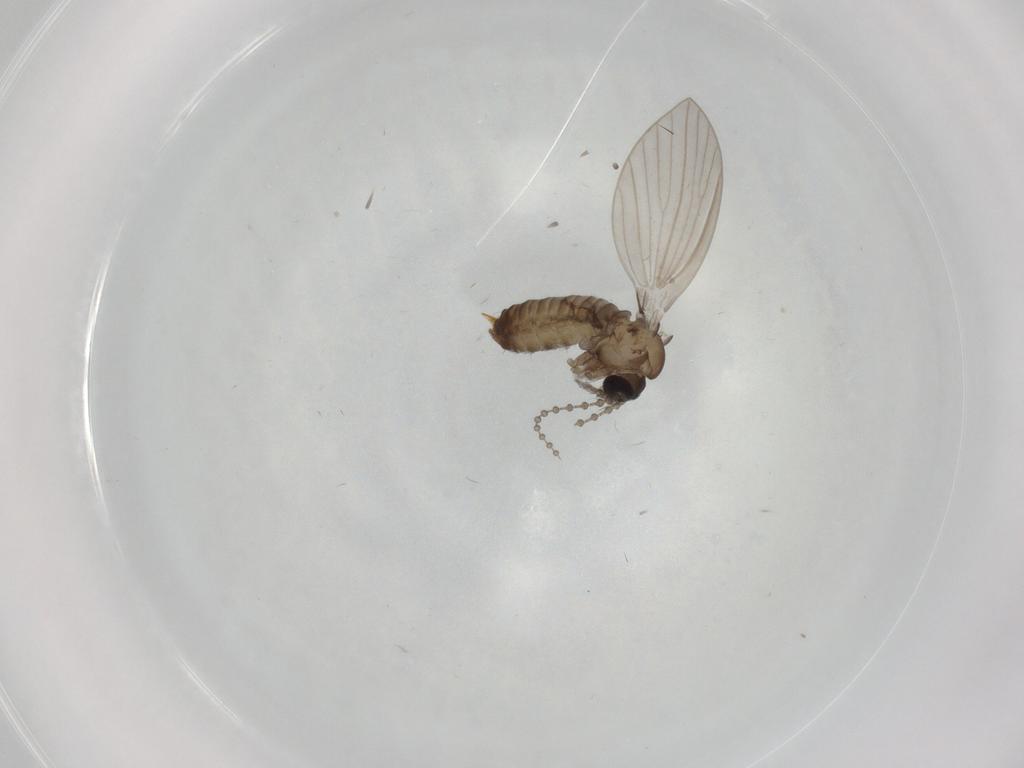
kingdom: Animalia
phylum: Arthropoda
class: Insecta
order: Diptera
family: Psychodidae
